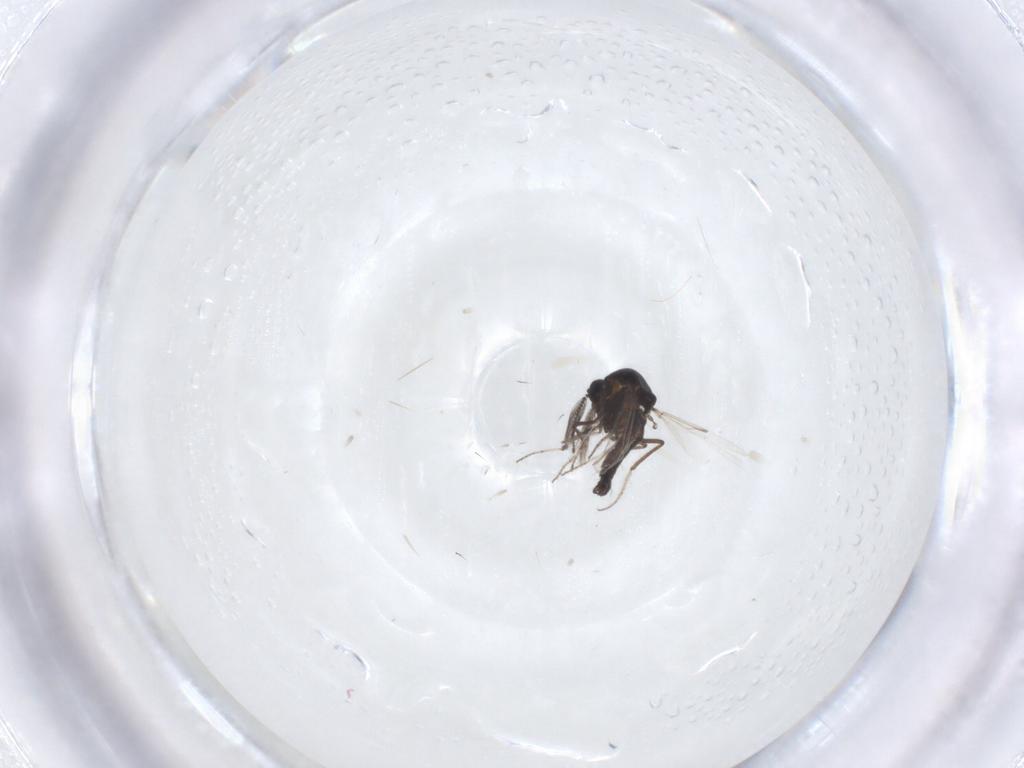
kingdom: Animalia
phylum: Arthropoda
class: Insecta
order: Diptera
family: Ceratopogonidae
